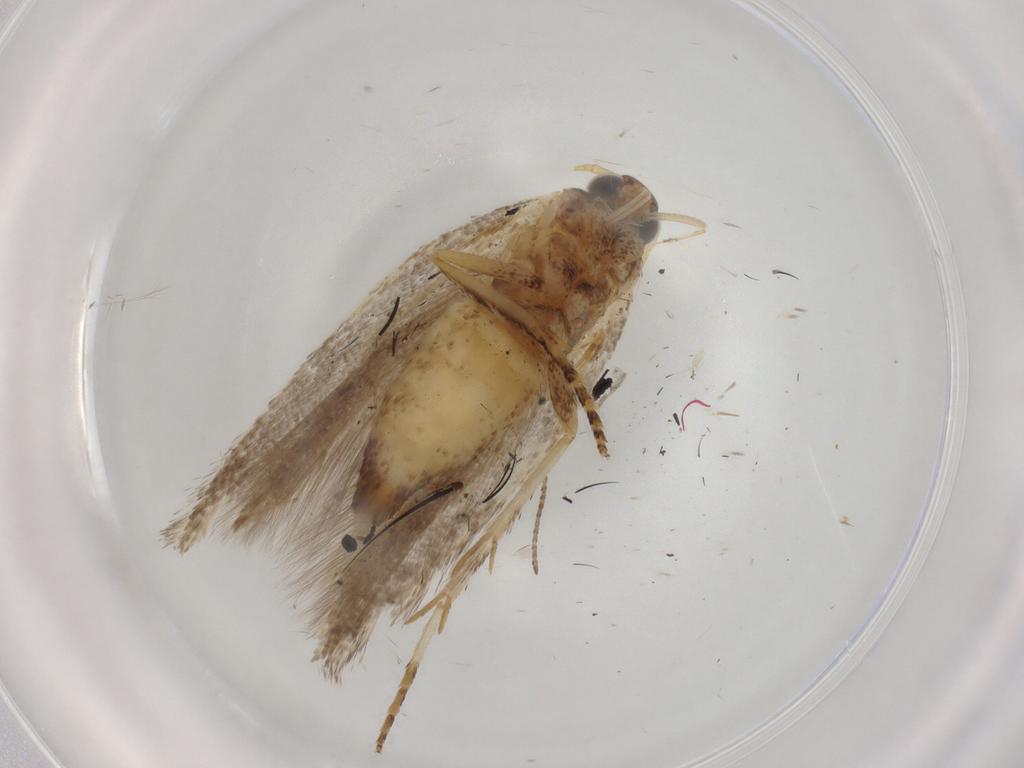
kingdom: Animalia
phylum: Arthropoda
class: Insecta
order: Lepidoptera
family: Gelechiidae
